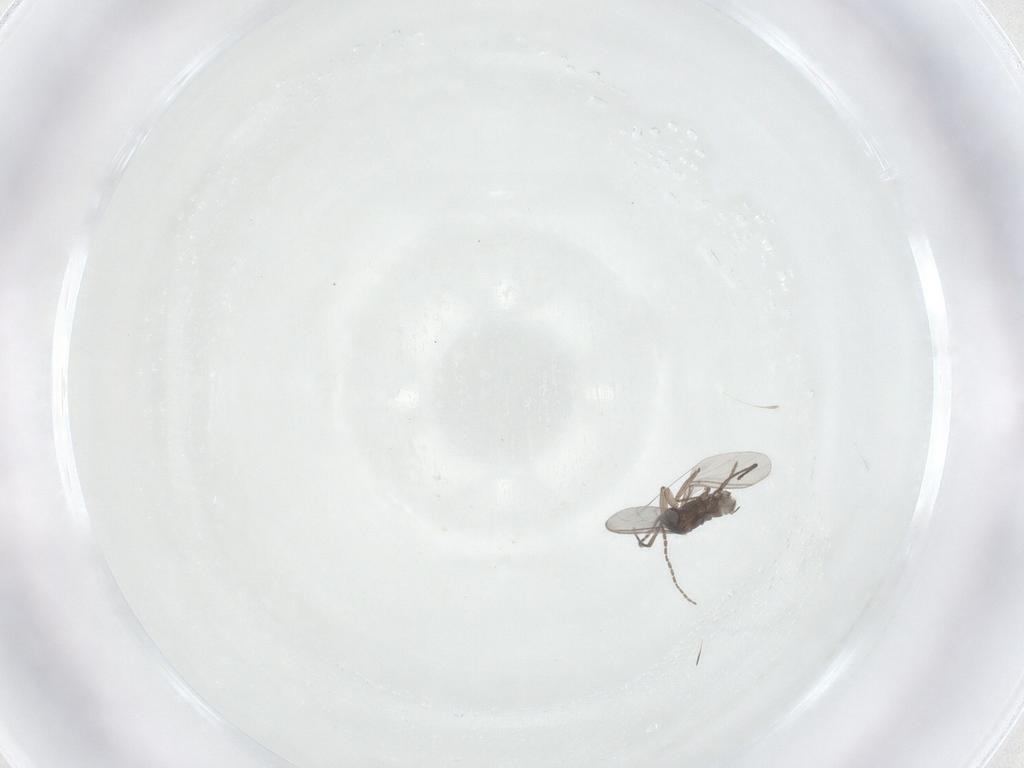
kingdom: Animalia
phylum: Arthropoda
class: Insecta
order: Diptera
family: Sciaridae
